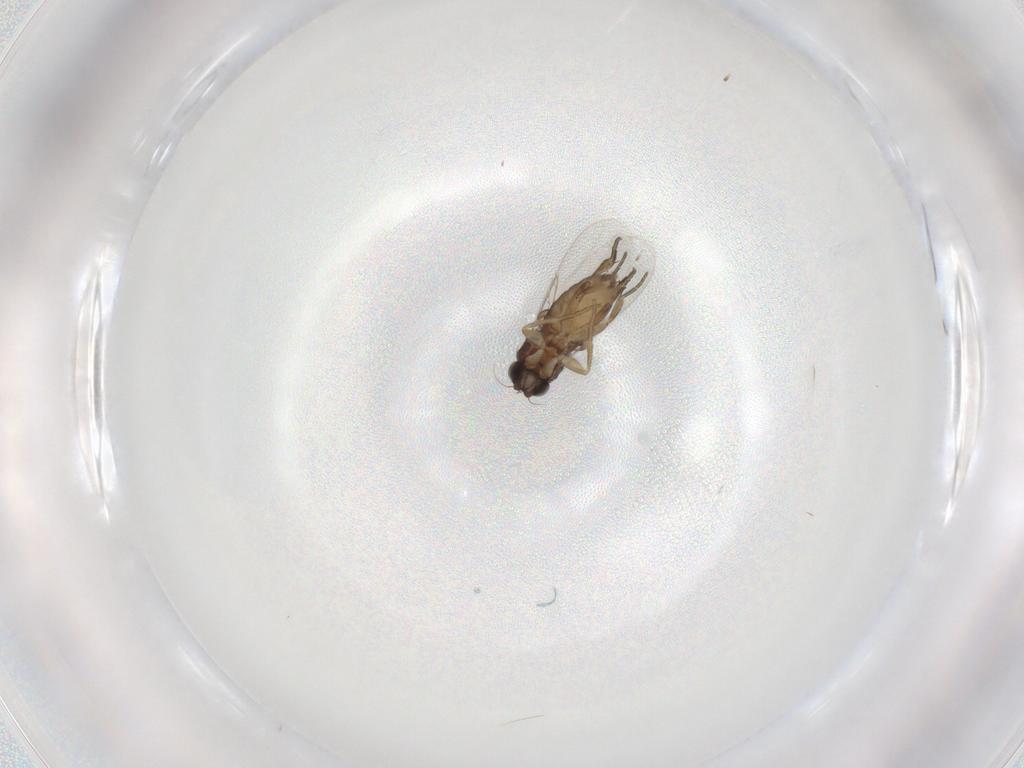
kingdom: Animalia
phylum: Arthropoda
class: Insecta
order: Diptera
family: Phoridae
